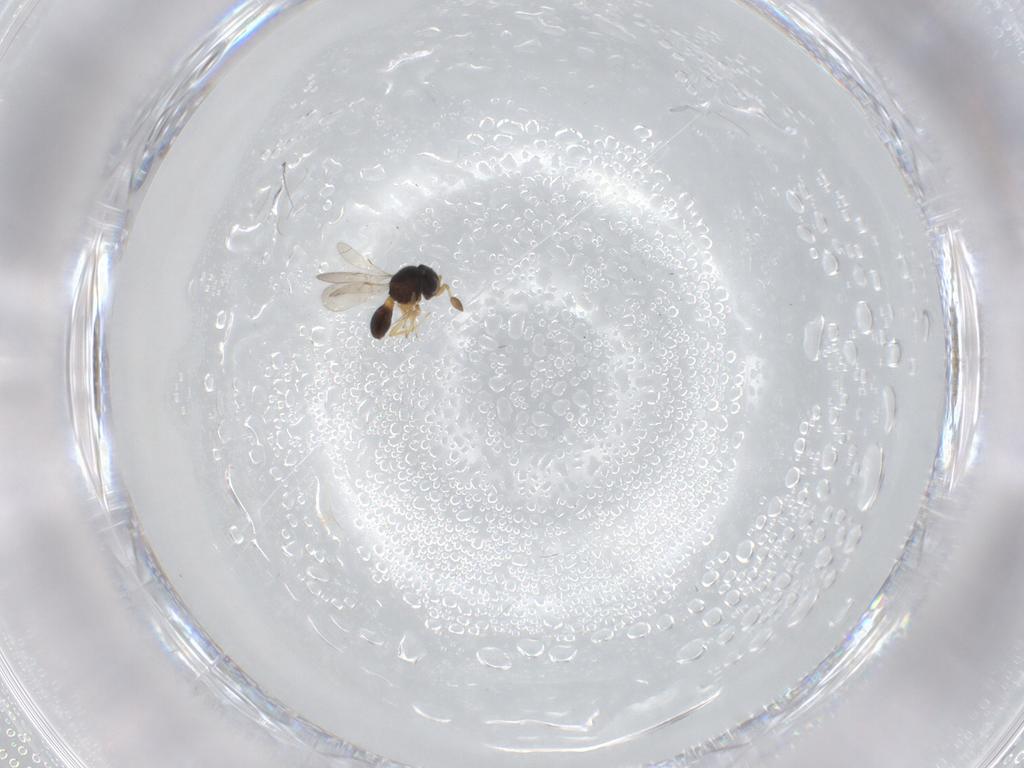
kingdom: Animalia
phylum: Arthropoda
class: Insecta
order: Hymenoptera
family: Scelionidae
